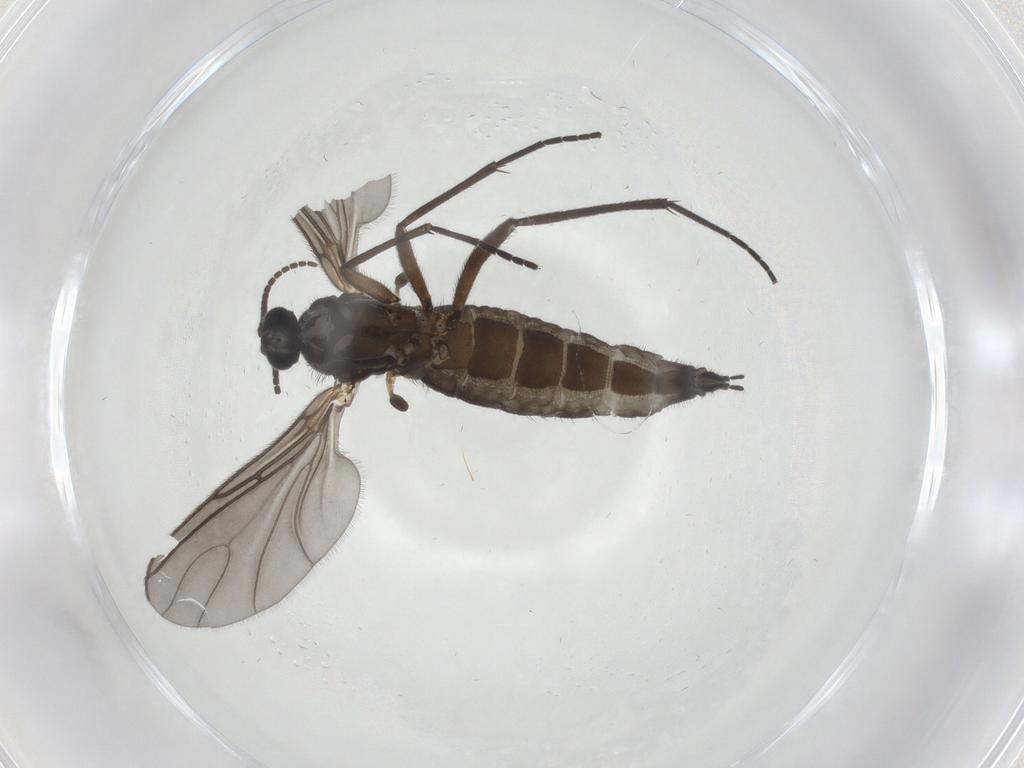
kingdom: Animalia
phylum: Arthropoda
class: Insecta
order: Diptera
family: Sciaridae
